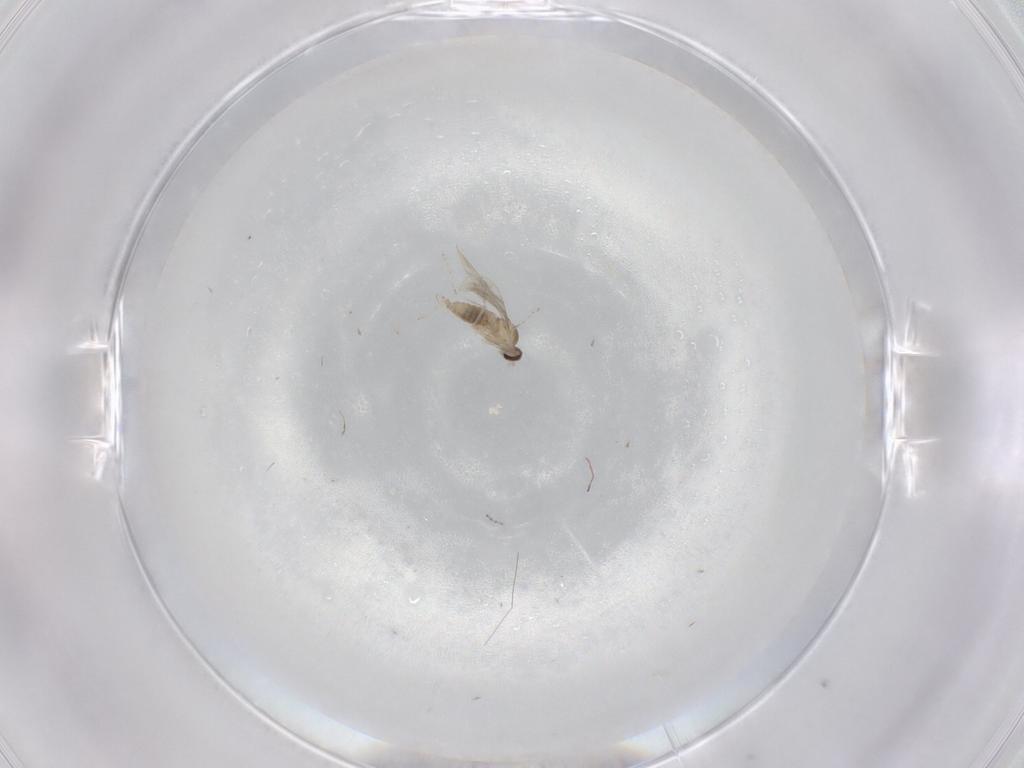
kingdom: Animalia
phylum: Arthropoda
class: Insecta
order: Diptera
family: Cecidomyiidae
